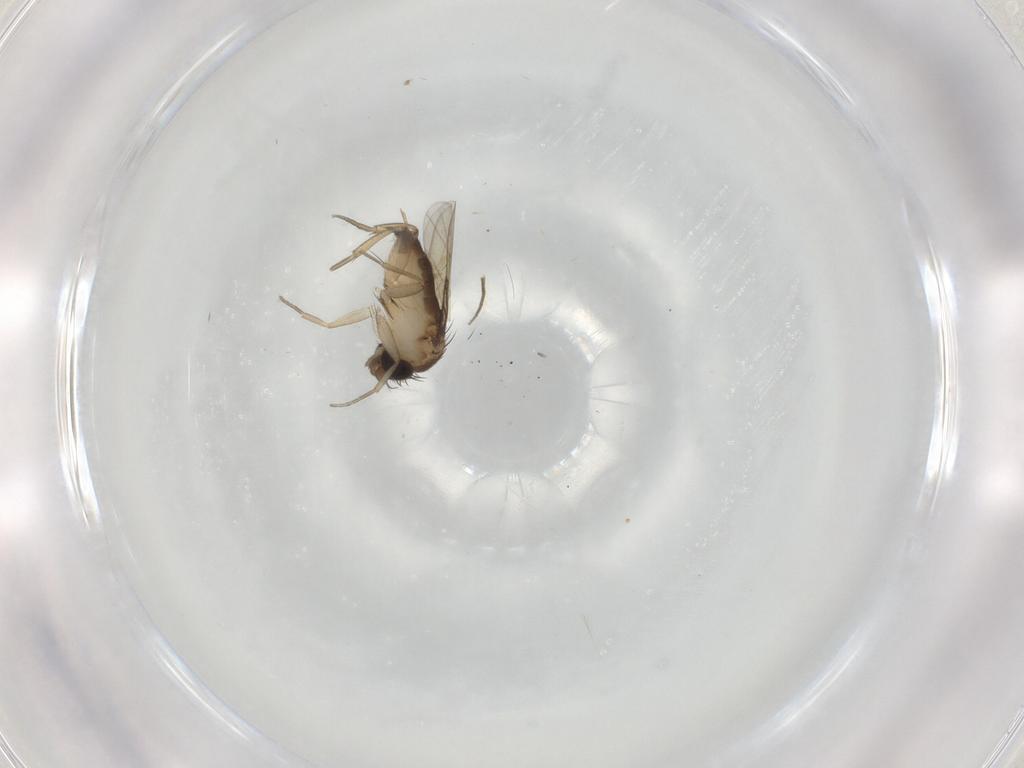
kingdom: Animalia
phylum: Arthropoda
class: Insecta
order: Diptera
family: Phoridae
